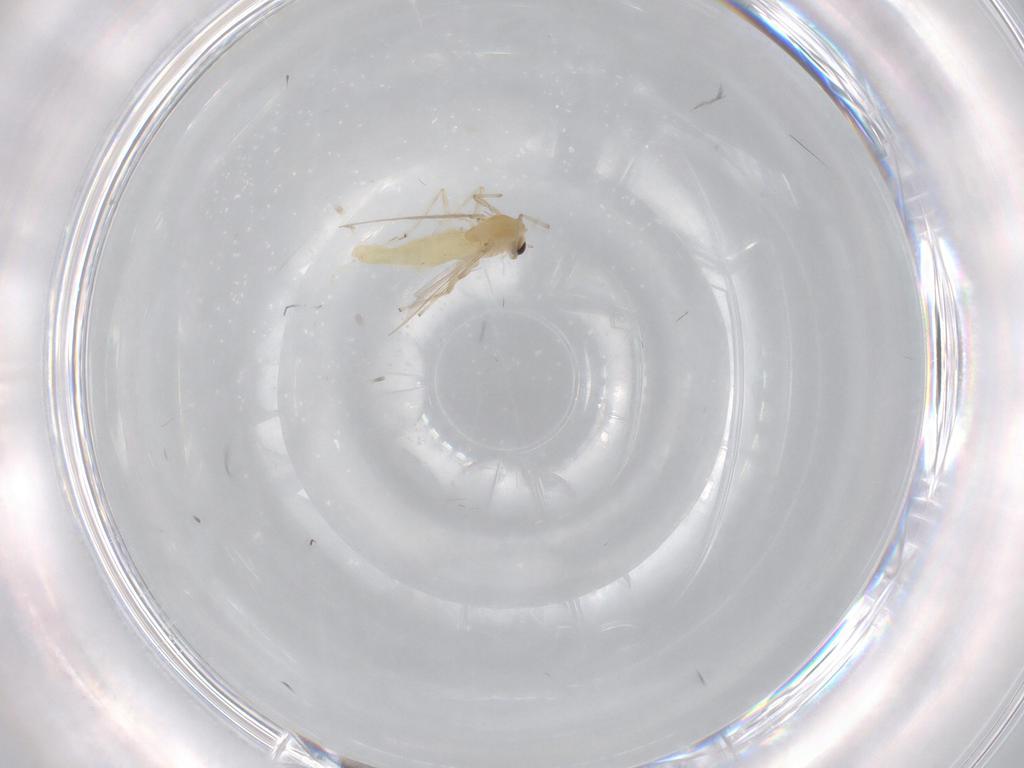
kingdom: Animalia
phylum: Arthropoda
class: Insecta
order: Diptera
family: Chironomidae
